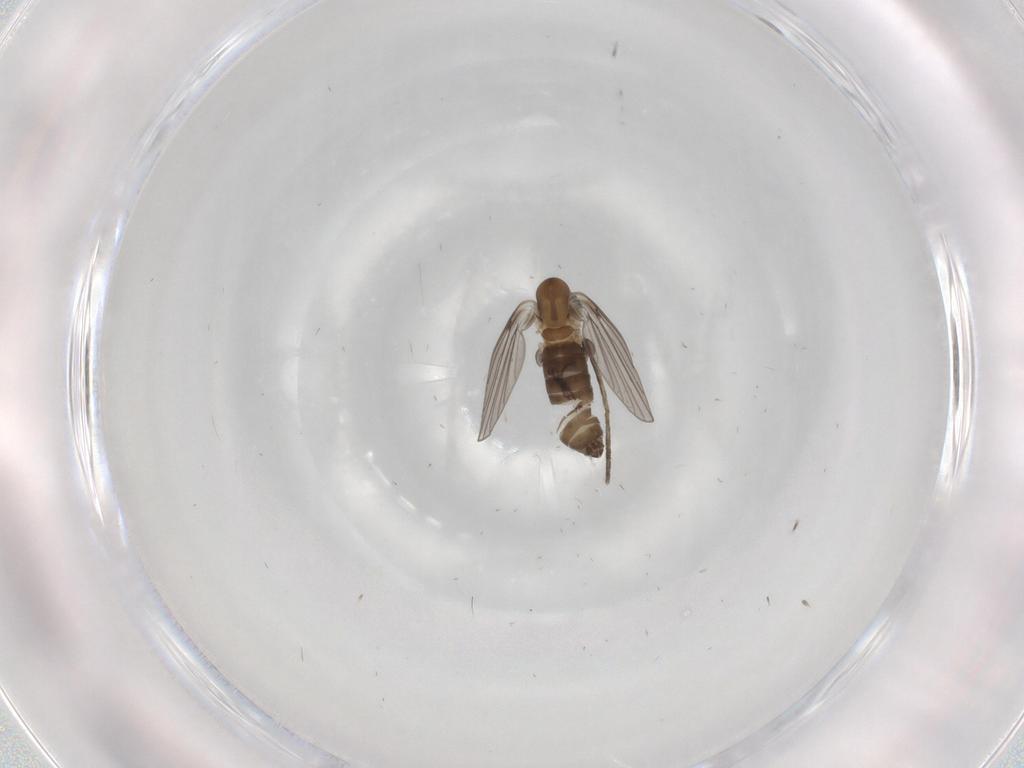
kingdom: Animalia
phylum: Arthropoda
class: Insecta
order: Diptera
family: Psychodidae
